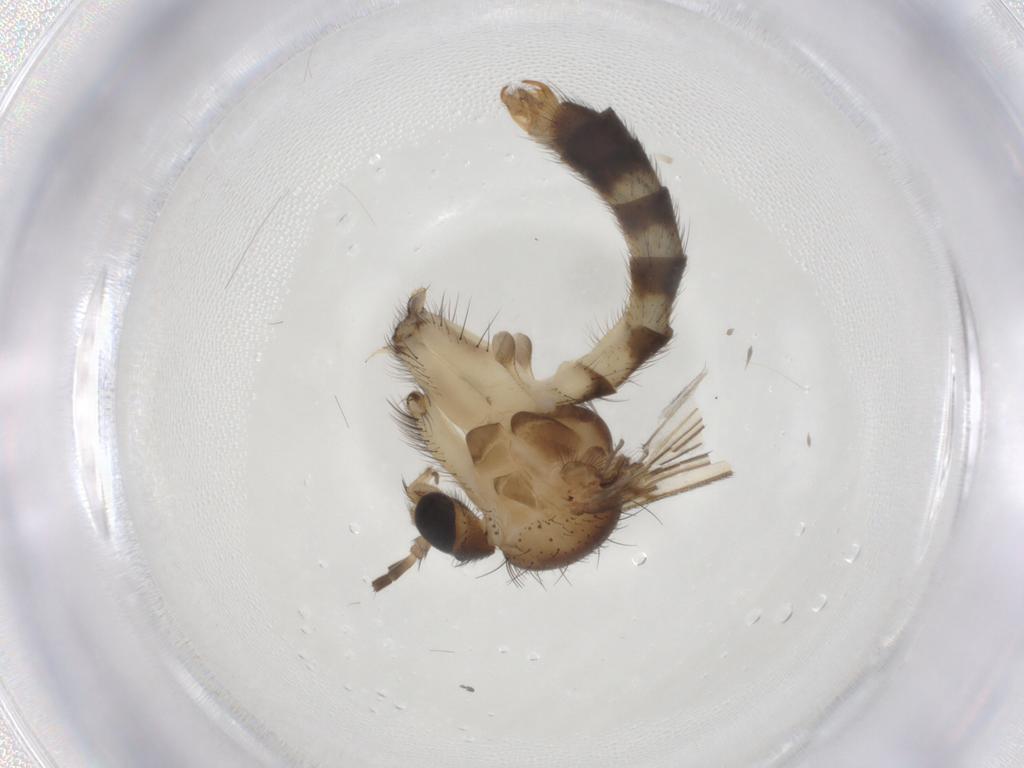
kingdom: Animalia
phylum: Arthropoda
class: Insecta
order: Diptera
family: Mycetophilidae
